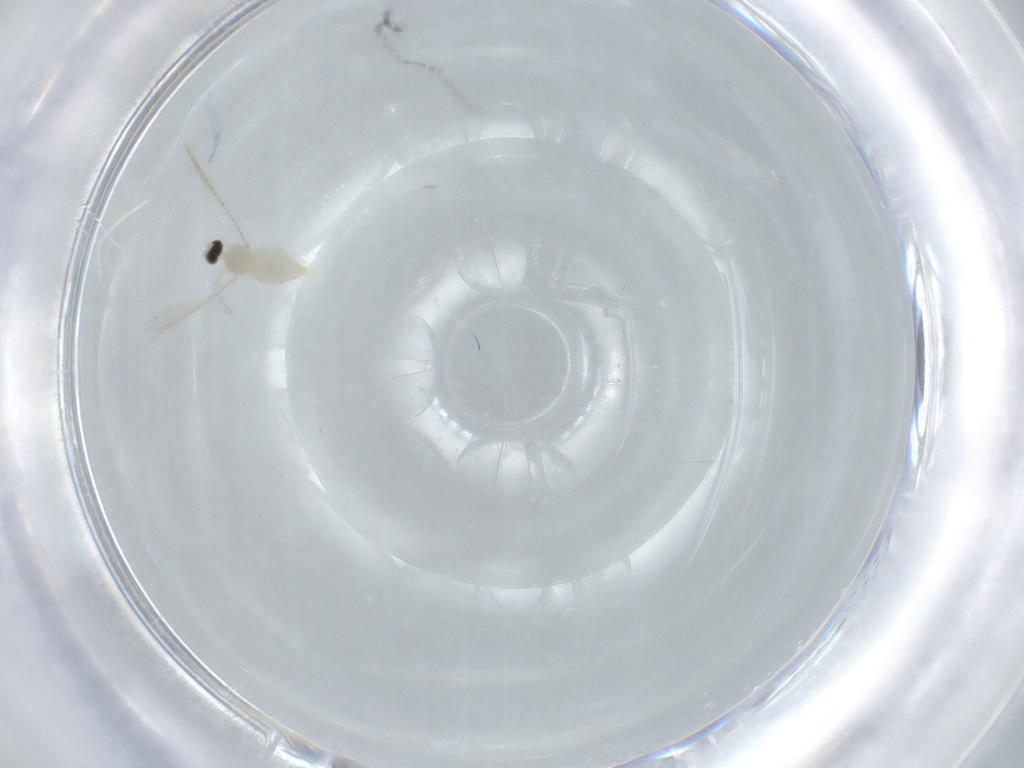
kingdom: Animalia
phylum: Arthropoda
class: Insecta
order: Diptera
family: Cecidomyiidae
